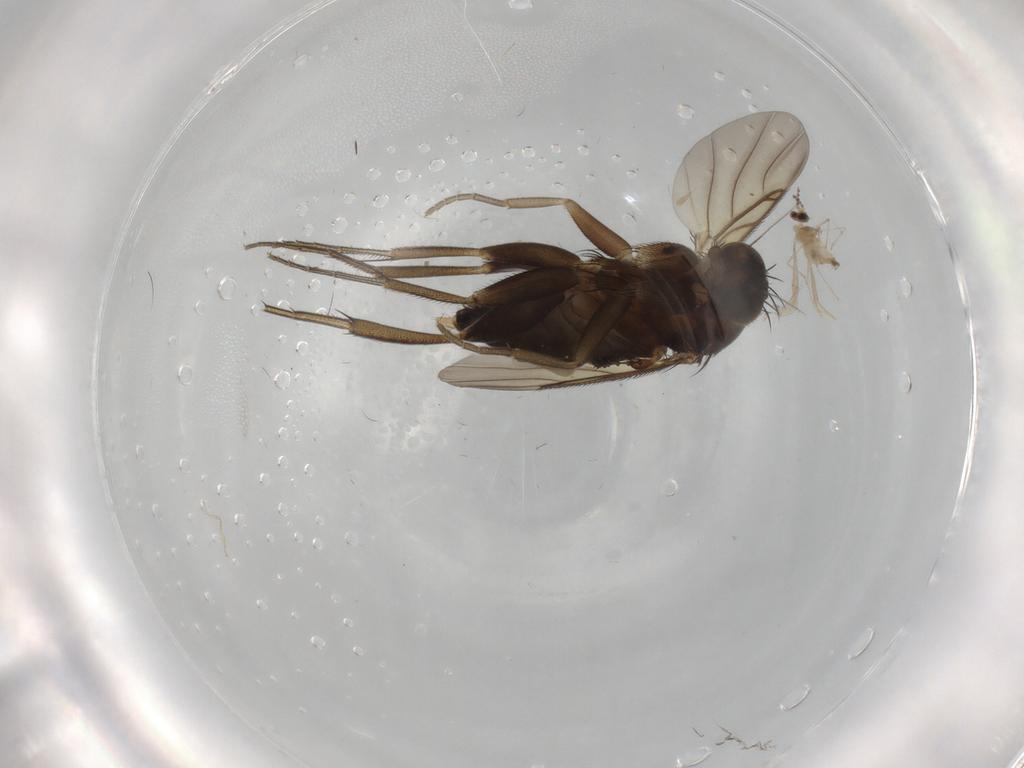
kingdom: Animalia
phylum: Arthropoda
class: Insecta
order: Diptera
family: Phoridae
